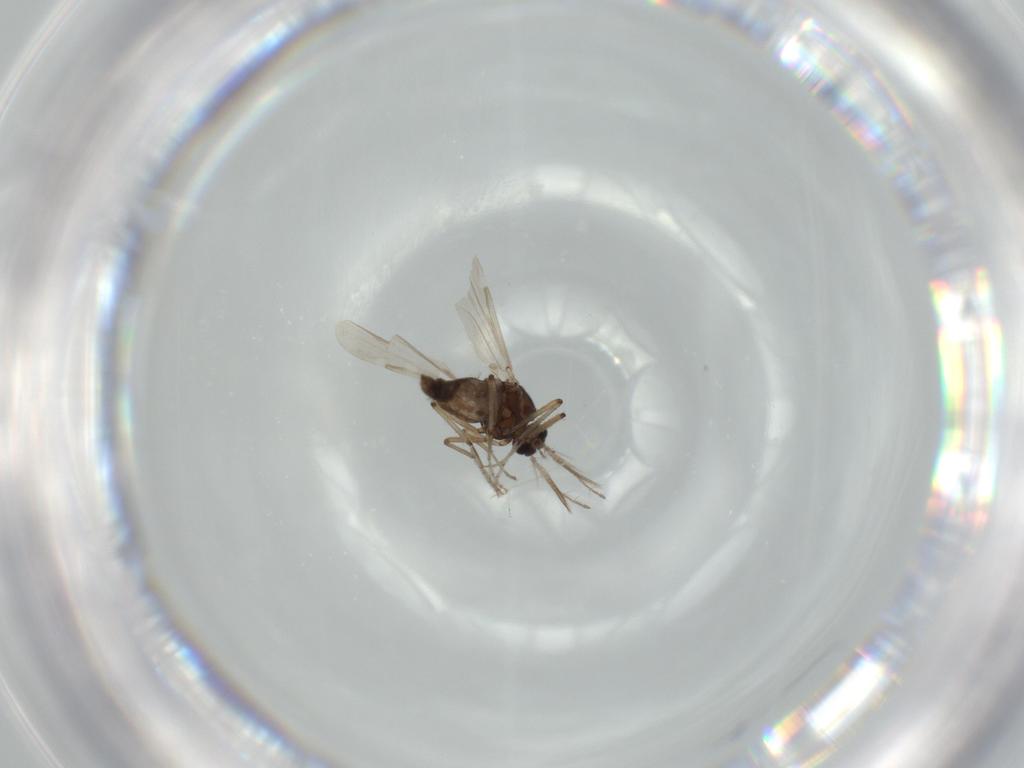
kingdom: Animalia
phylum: Arthropoda
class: Insecta
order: Diptera
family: Ceratopogonidae
